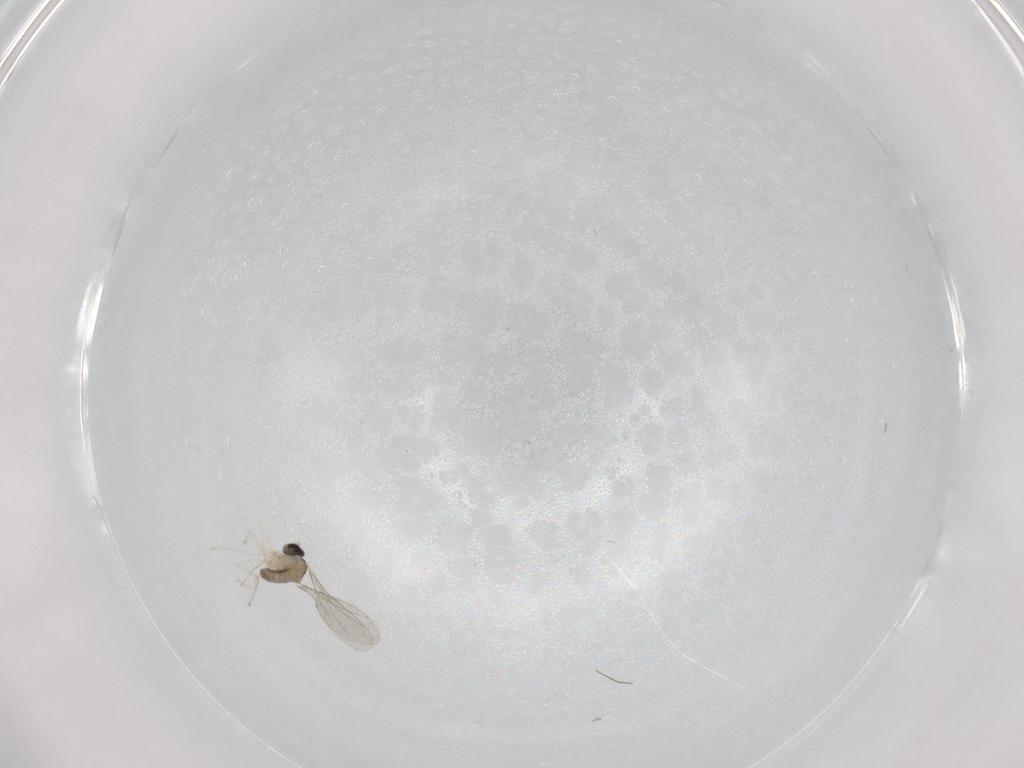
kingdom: Animalia
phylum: Arthropoda
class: Insecta
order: Diptera
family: Cecidomyiidae
